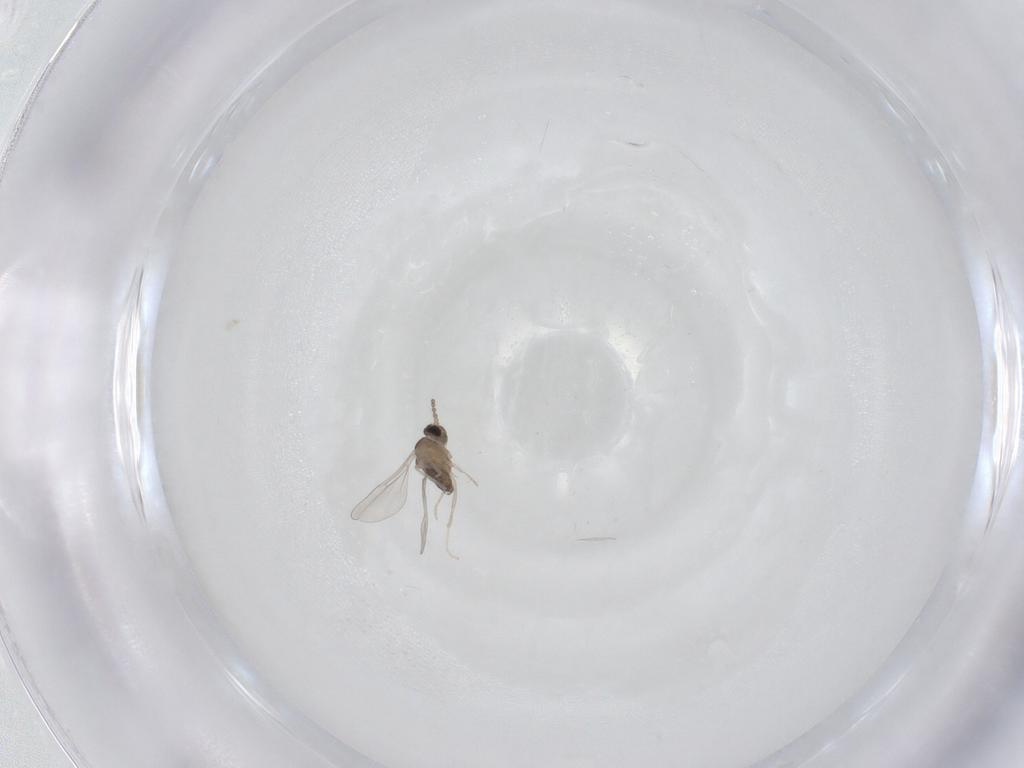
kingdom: Animalia
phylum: Arthropoda
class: Insecta
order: Diptera
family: Cecidomyiidae
